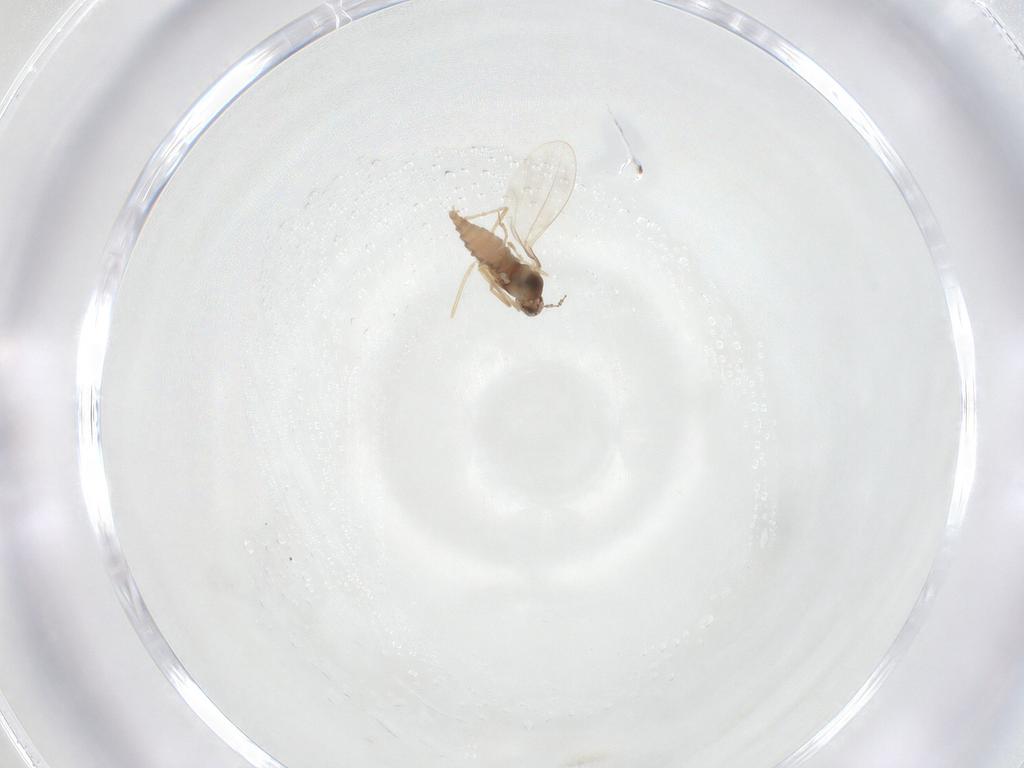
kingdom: Animalia
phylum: Arthropoda
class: Insecta
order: Diptera
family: Cecidomyiidae
